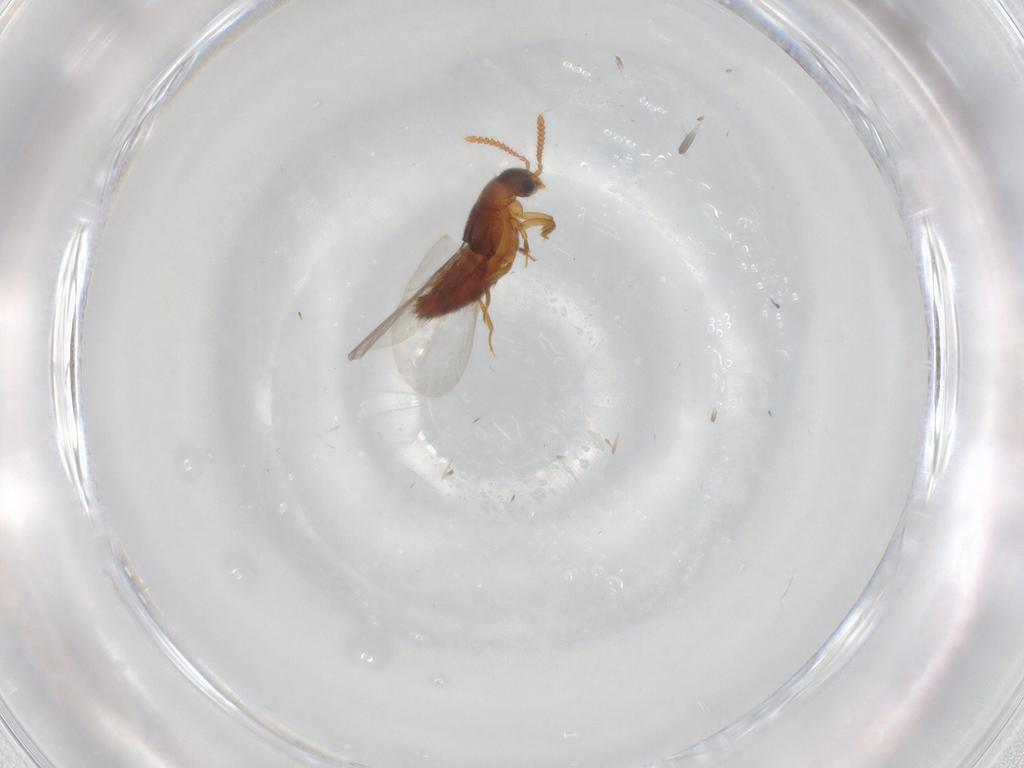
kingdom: Animalia
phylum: Arthropoda
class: Insecta
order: Coleoptera
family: Staphylinidae
